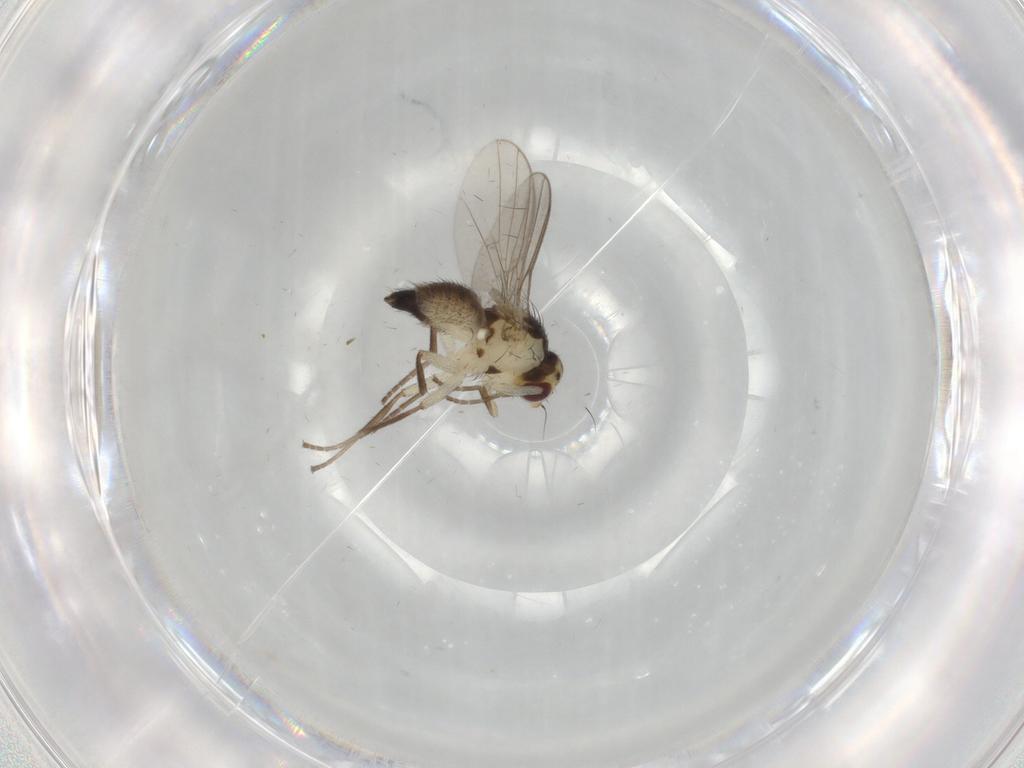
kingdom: Animalia
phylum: Arthropoda
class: Insecta
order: Diptera
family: Agromyzidae
